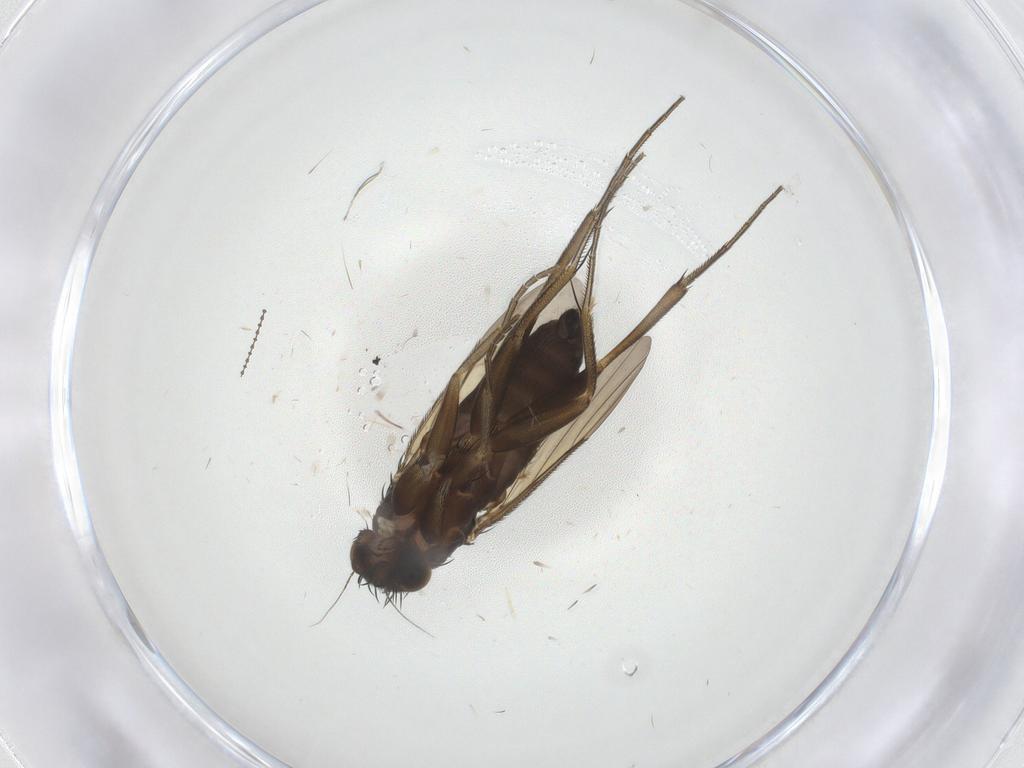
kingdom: Animalia
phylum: Arthropoda
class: Insecta
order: Diptera
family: Phoridae
